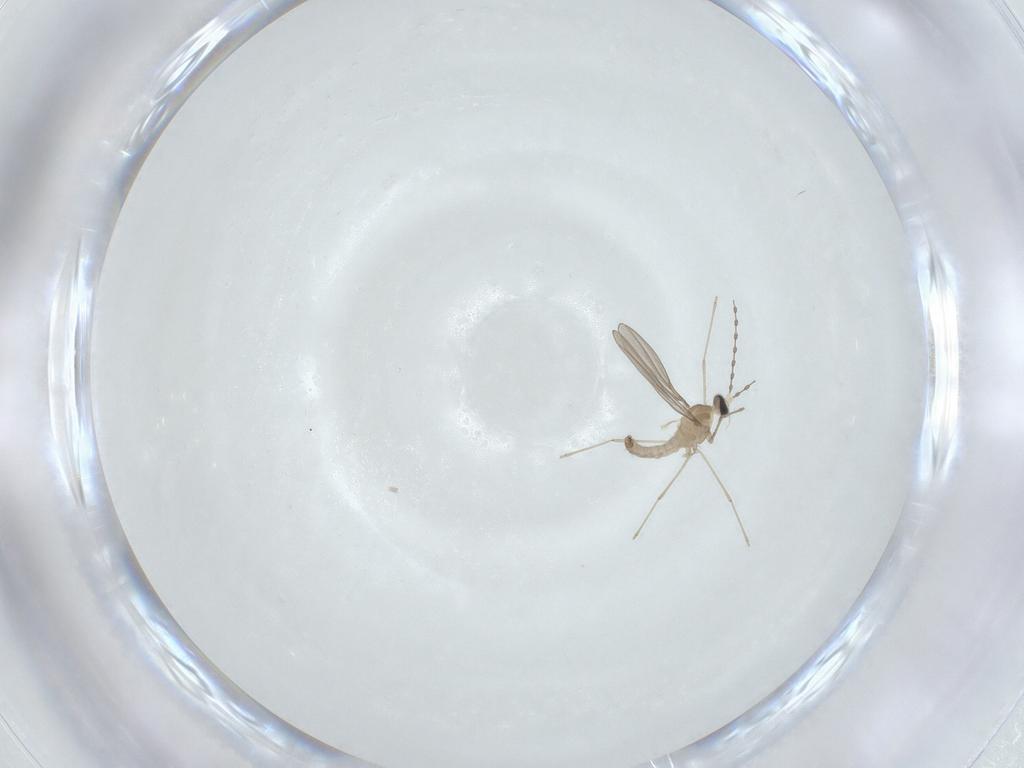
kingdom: Animalia
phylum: Arthropoda
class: Insecta
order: Diptera
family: Cecidomyiidae
